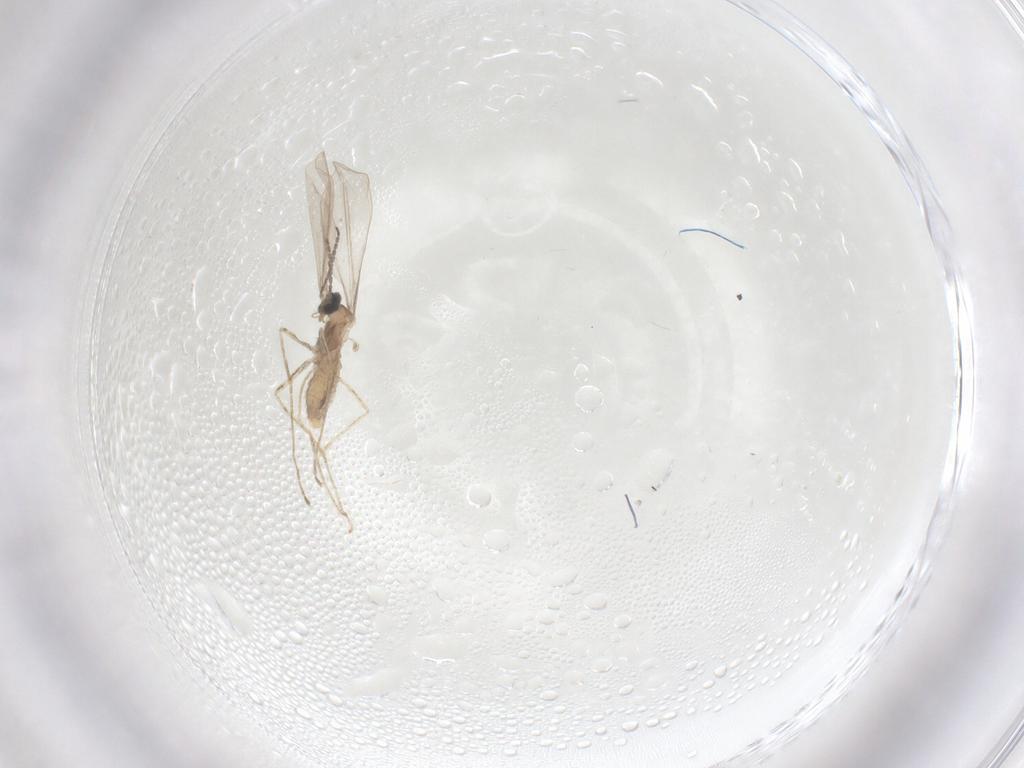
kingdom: Animalia
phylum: Arthropoda
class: Insecta
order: Diptera
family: Cecidomyiidae
